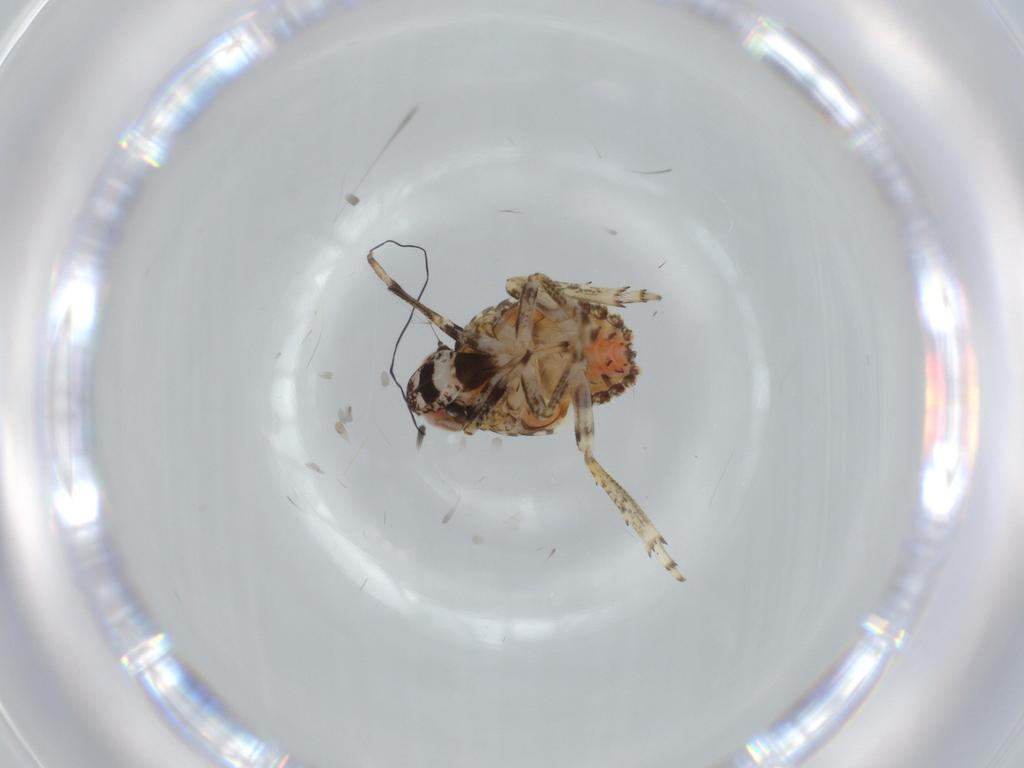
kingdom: Animalia
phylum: Arthropoda
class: Insecta
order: Hemiptera
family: Issidae
